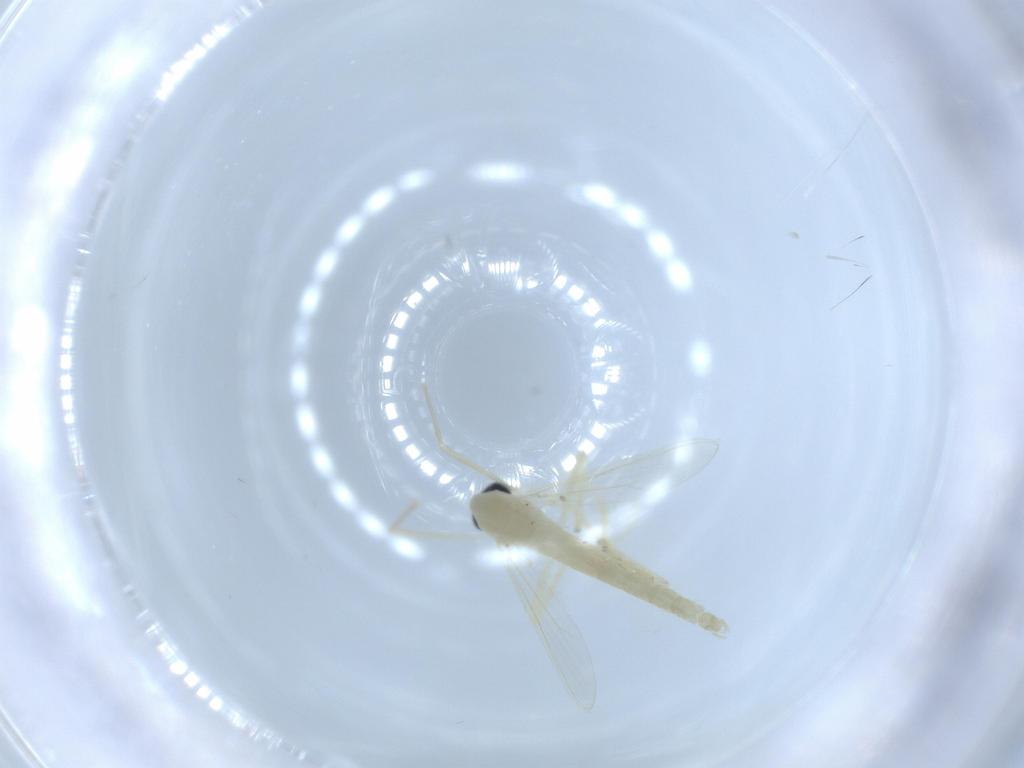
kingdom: Animalia
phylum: Arthropoda
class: Insecta
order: Diptera
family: Chironomidae
